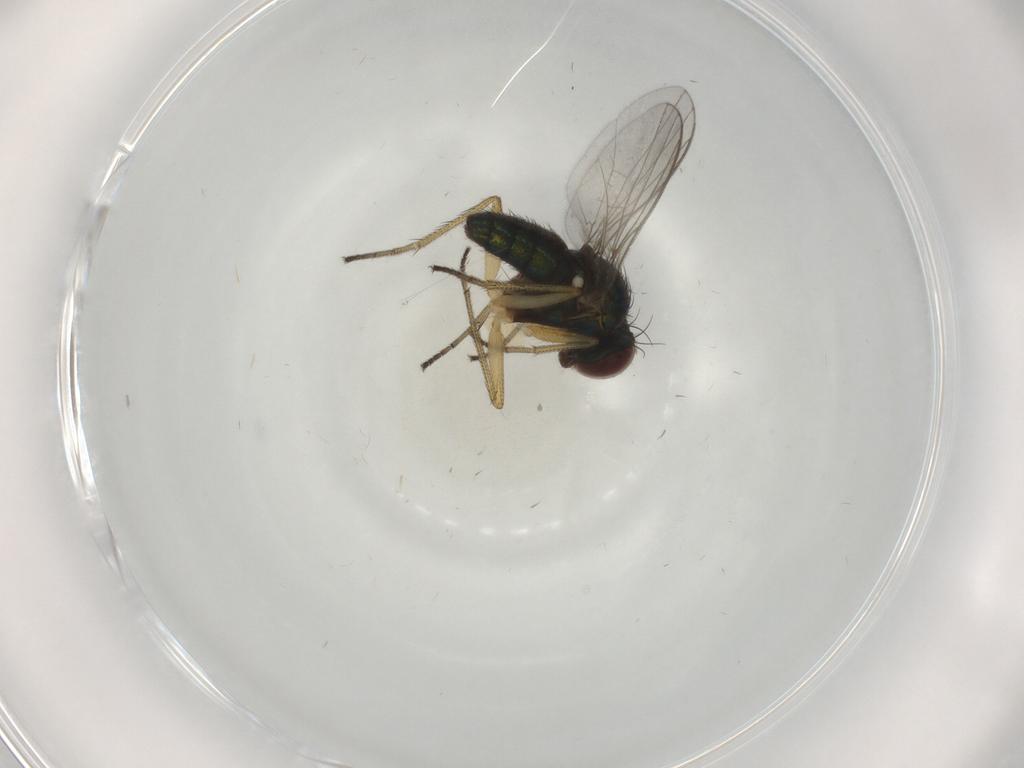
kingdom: Animalia
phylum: Arthropoda
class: Insecta
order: Diptera
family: Dolichopodidae
